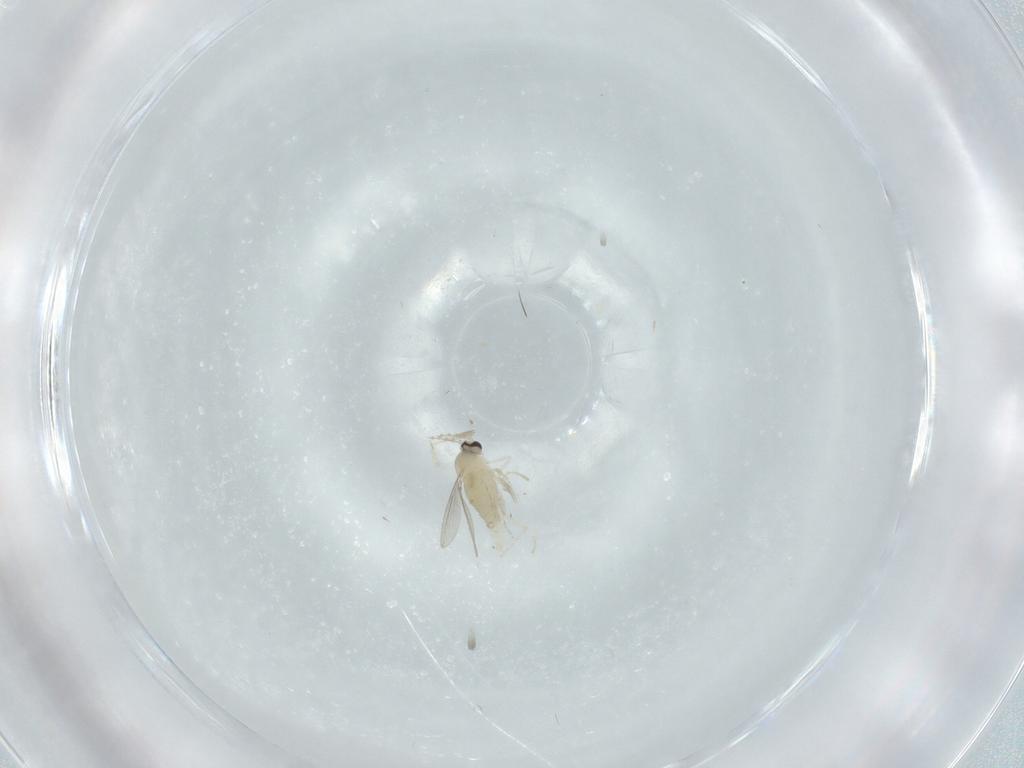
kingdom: Animalia
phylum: Arthropoda
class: Insecta
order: Diptera
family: Cecidomyiidae
